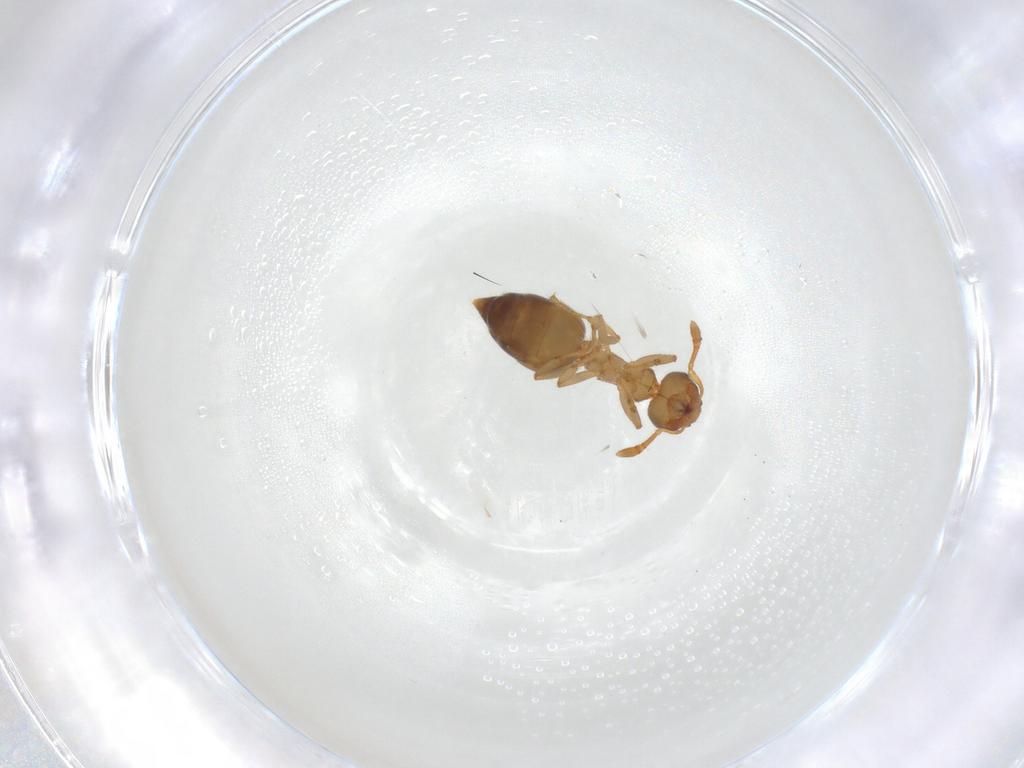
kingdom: Animalia
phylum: Arthropoda
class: Insecta
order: Hymenoptera
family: Formicidae
